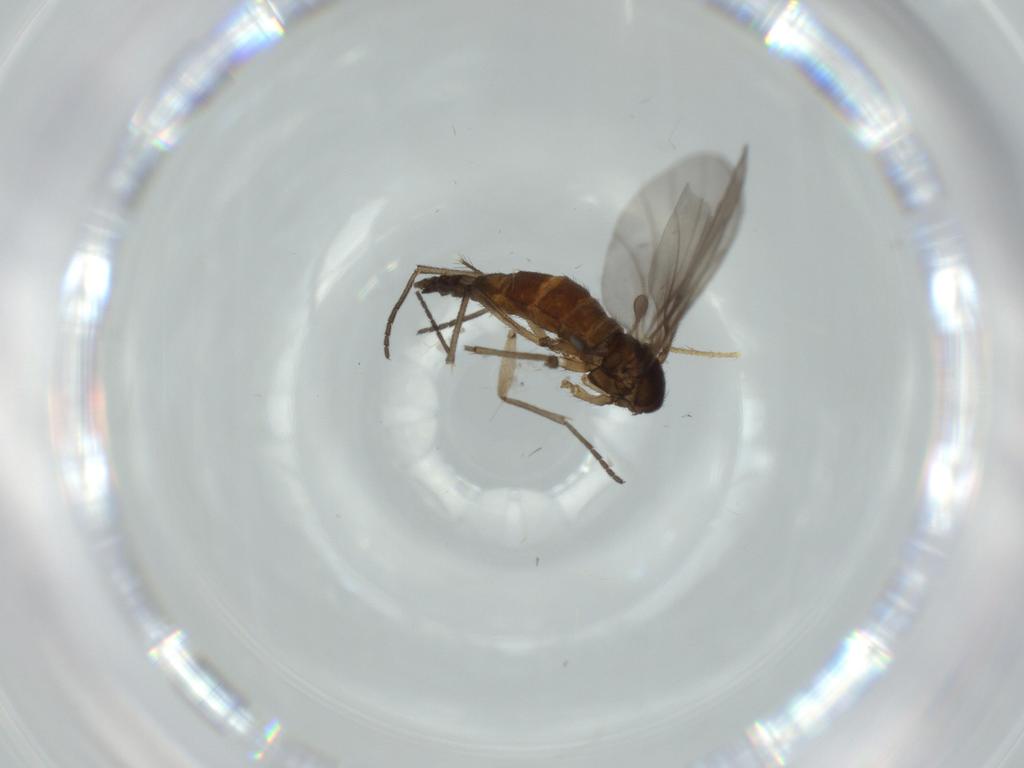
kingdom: Animalia
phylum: Arthropoda
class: Insecta
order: Diptera
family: Sciaridae
